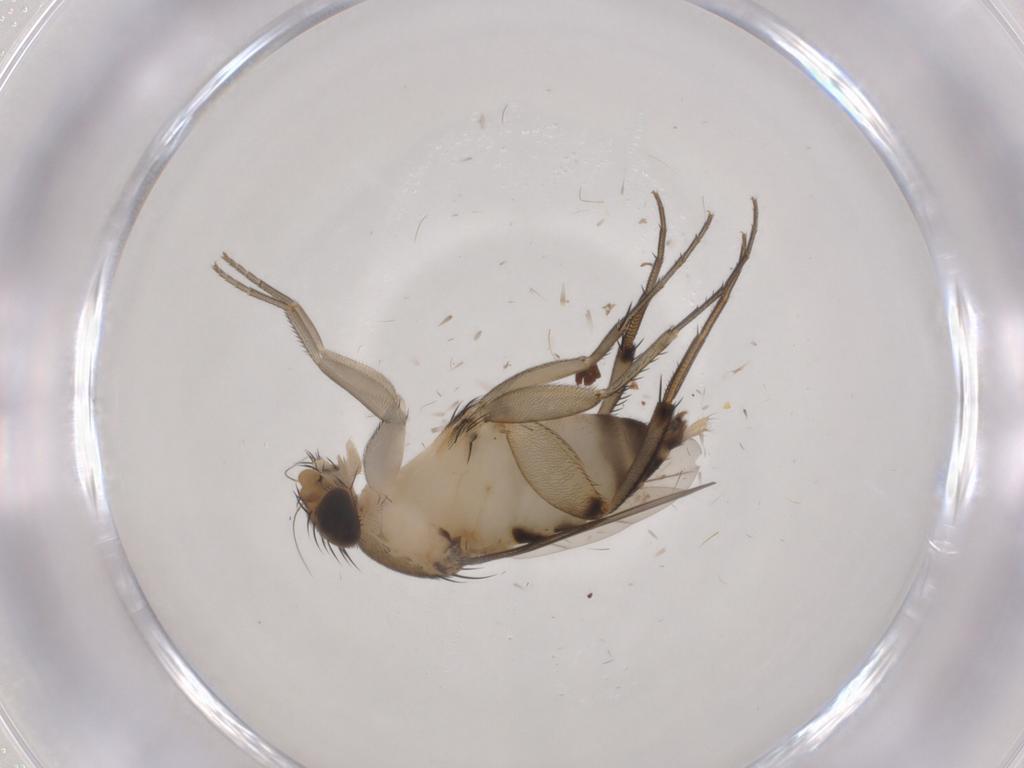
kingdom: Animalia
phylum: Arthropoda
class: Insecta
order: Diptera
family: Phoridae
